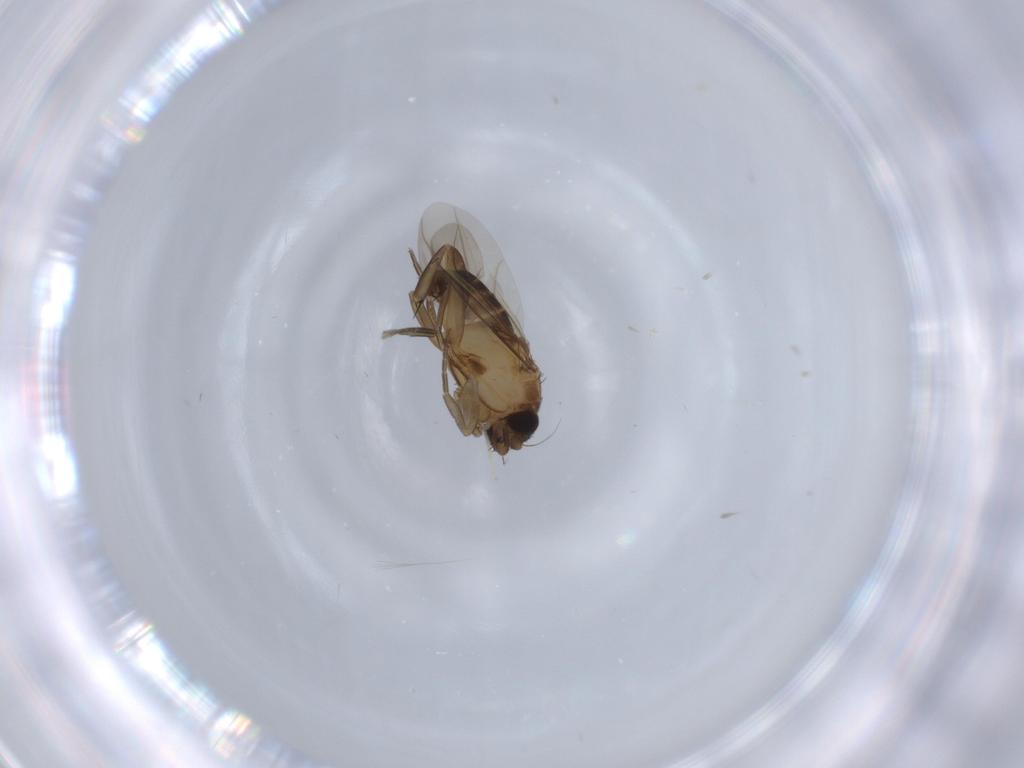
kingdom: Animalia
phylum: Arthropoda
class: Insecta
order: Diptera
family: Phoridae
